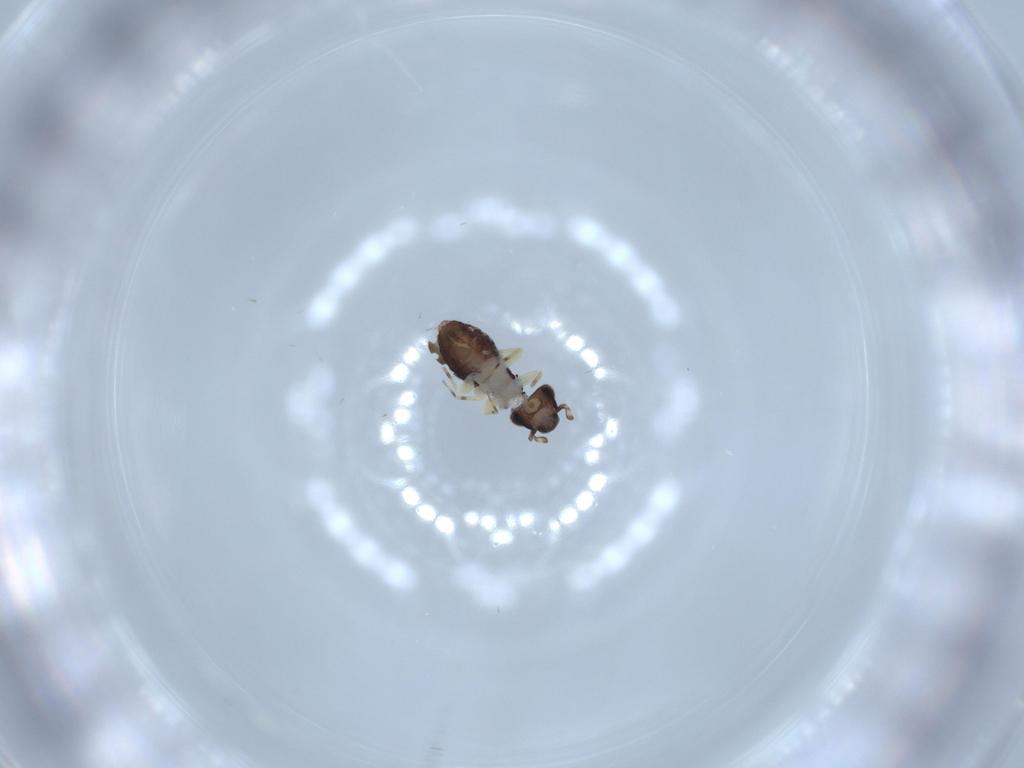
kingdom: Animalia
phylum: Arthropoda
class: Insecta
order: Psocodea
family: Psoquillidae
